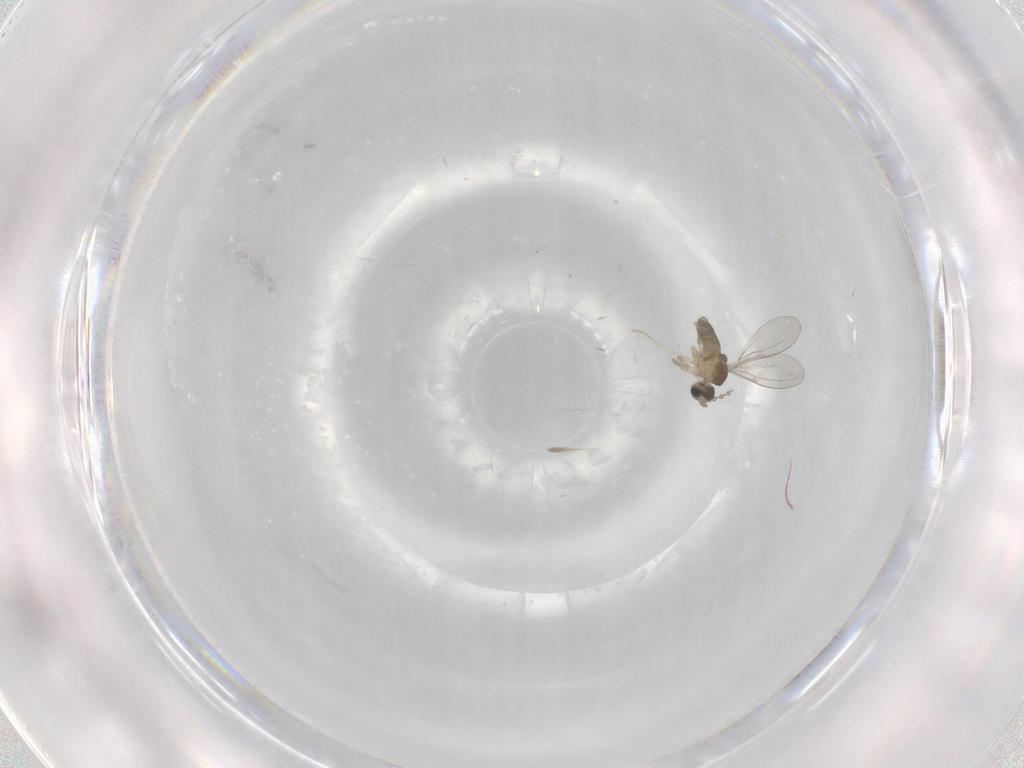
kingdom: Animalia
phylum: Arthropoda
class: Insecta
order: Diptera
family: Cecidomyiidae
